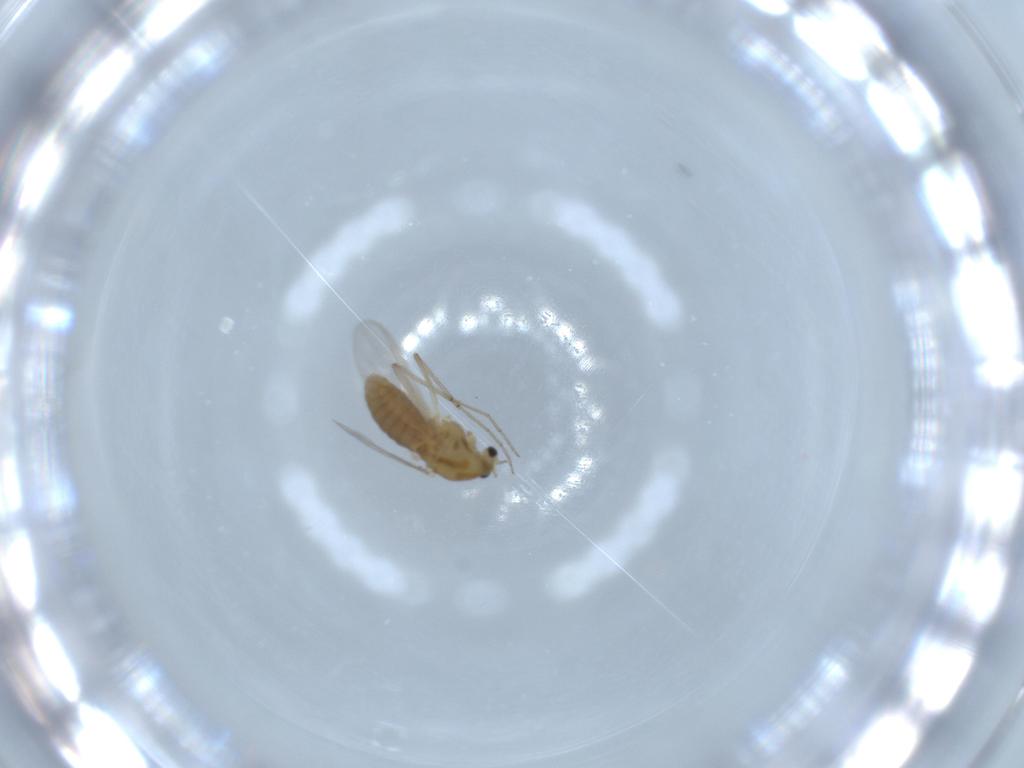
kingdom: Animalia
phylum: Arthropoda
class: Insecta
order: Diptera
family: Chironomidae
